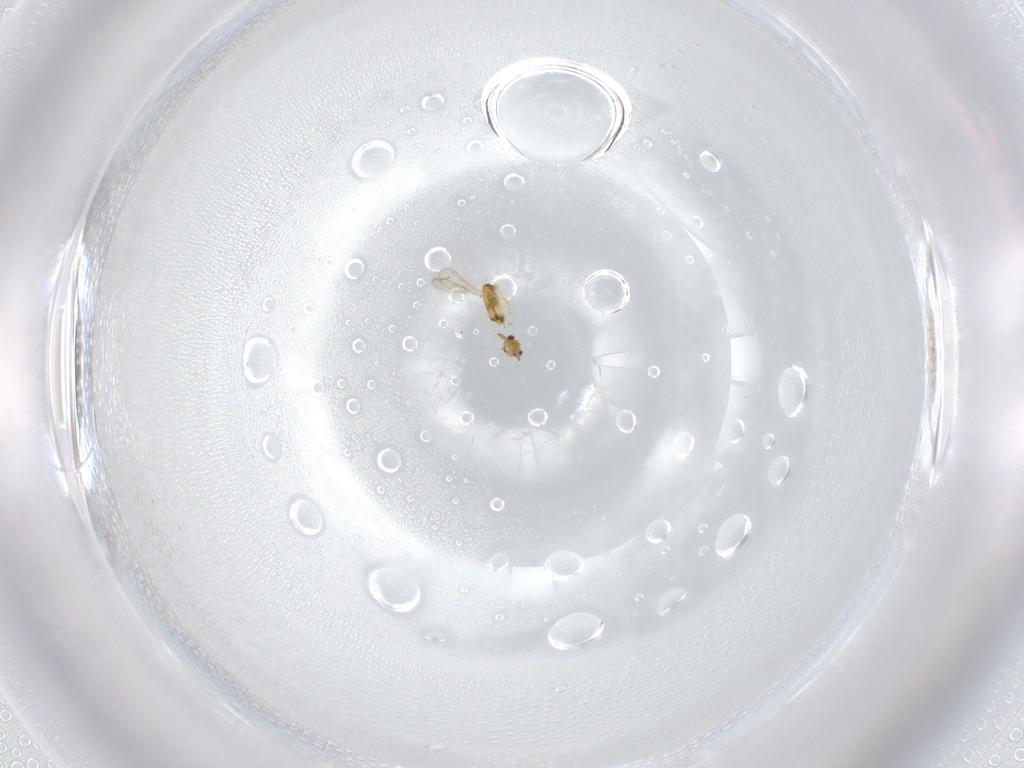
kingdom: Animalia
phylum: Arthropoda
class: Insecta
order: Hymenoptera
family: Aphelinidae
